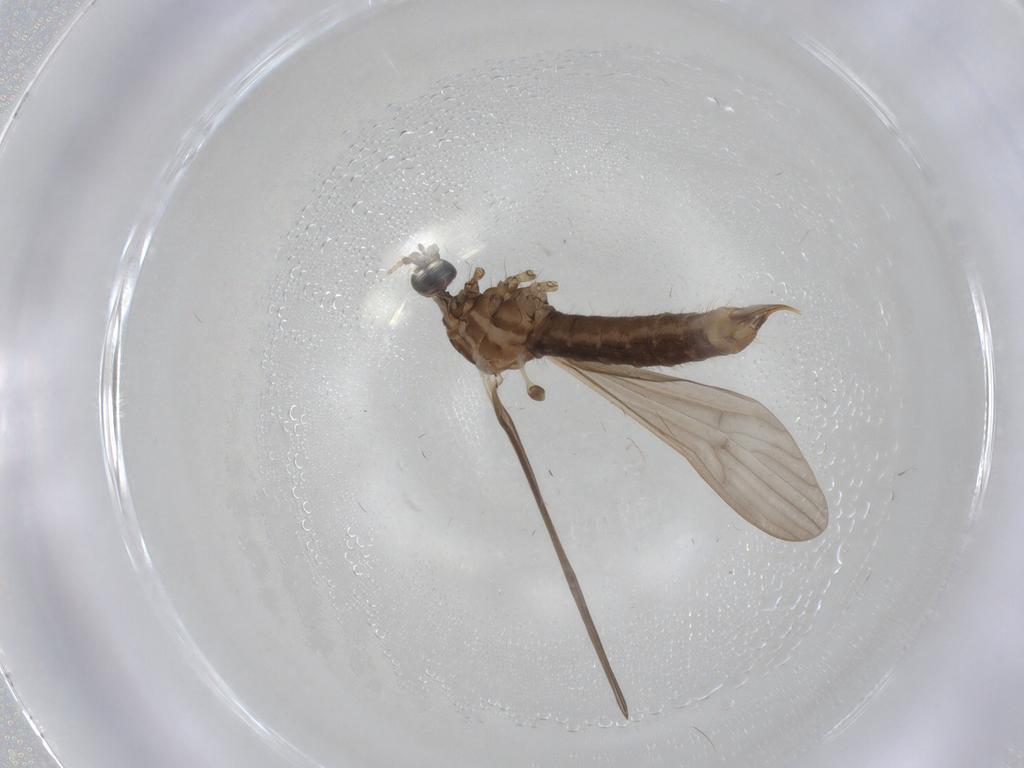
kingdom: Animalia
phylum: Arthropoda
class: Insecta
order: Diptera
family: Limoniidae
